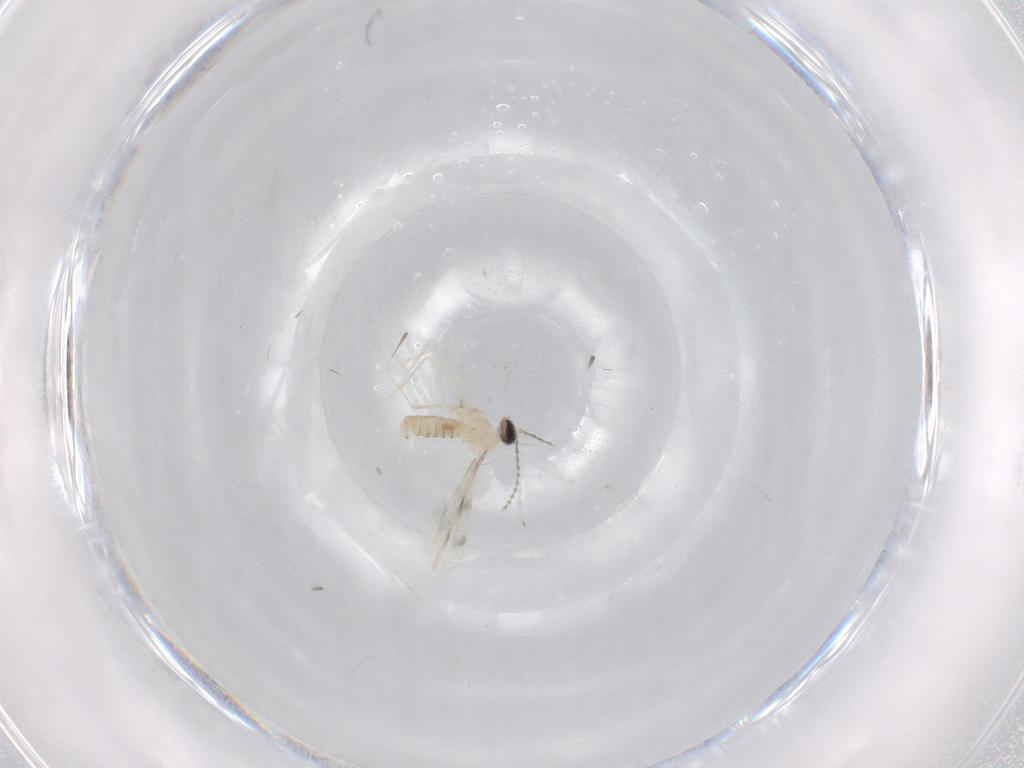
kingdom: Animalia
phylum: Arthropoda
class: Insecta
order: Diptera
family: Cecidomyiidae
